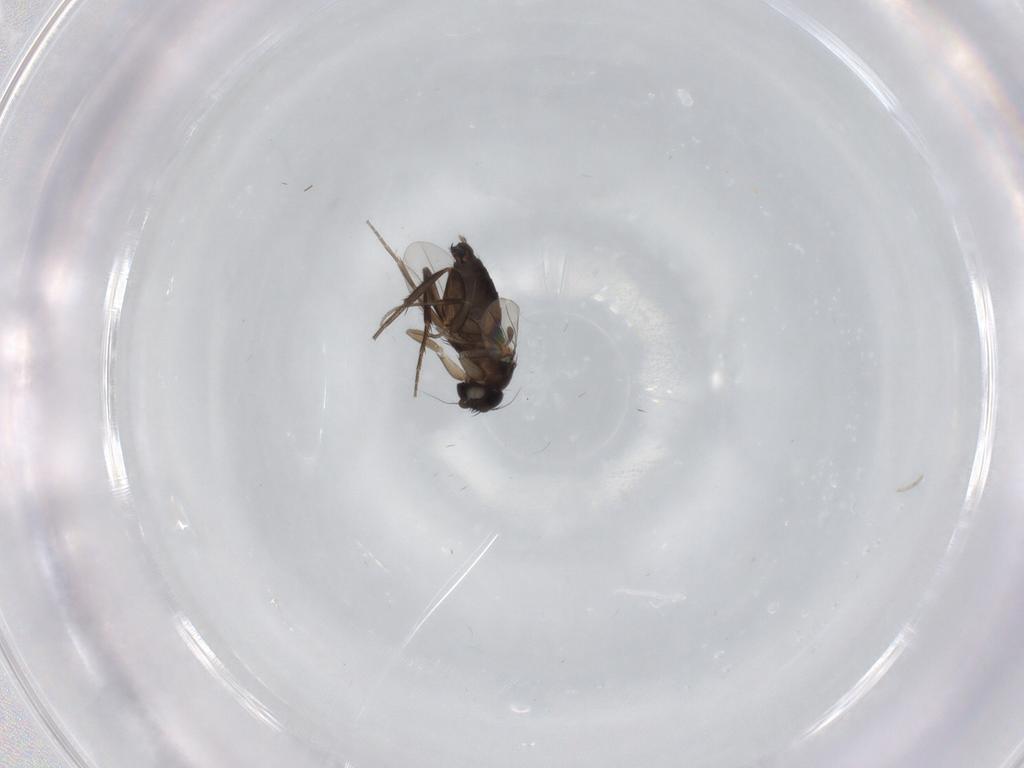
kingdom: Animalia
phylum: Arthropoda
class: Insecta
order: Diptera
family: Phoridae
